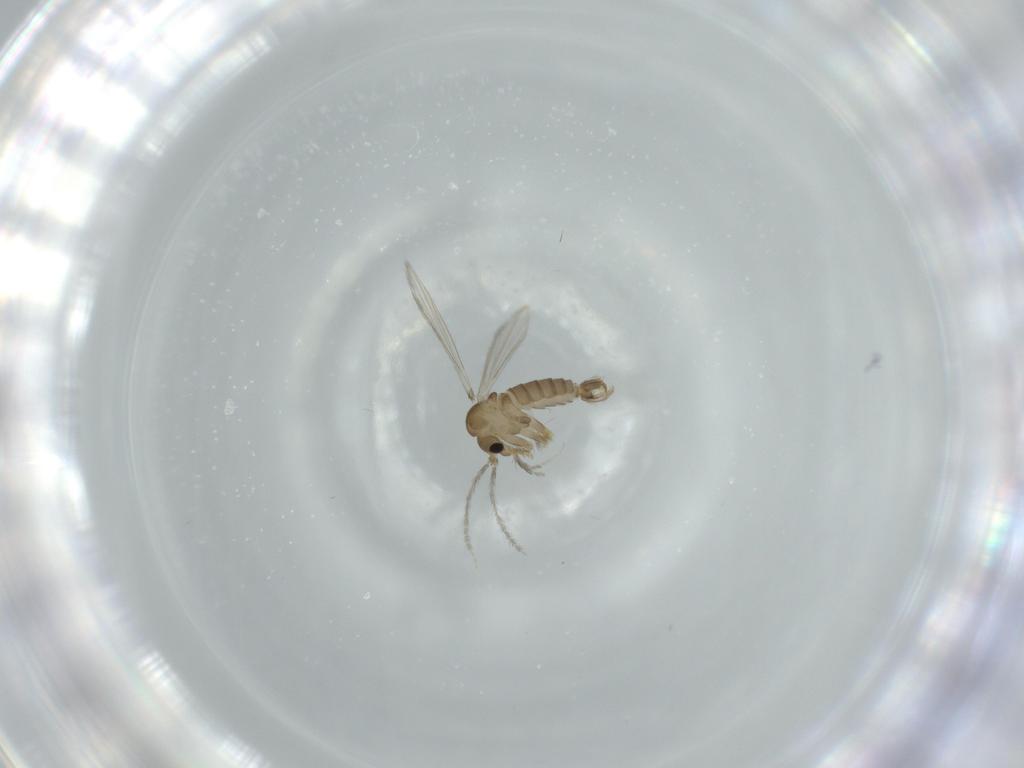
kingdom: Animalia
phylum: Arthropoda
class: Insecta
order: Diptera
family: Psychodidae
